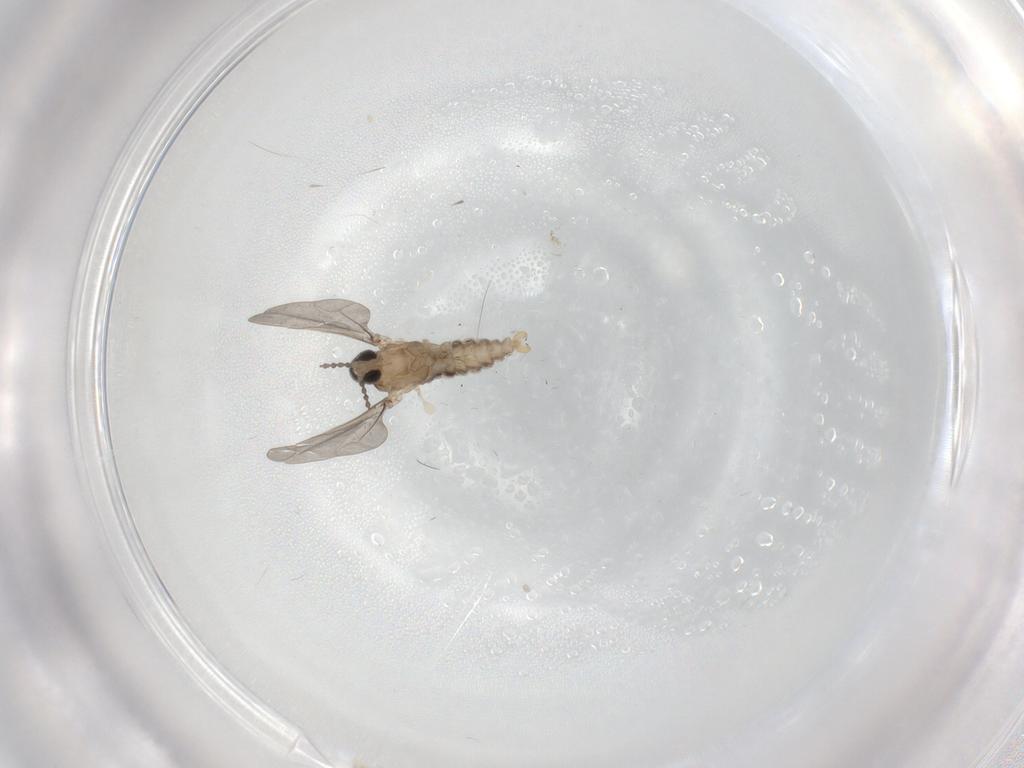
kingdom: Animalia
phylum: Arthropoda
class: Insecta
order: Diptera
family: Cecidomyiidae
